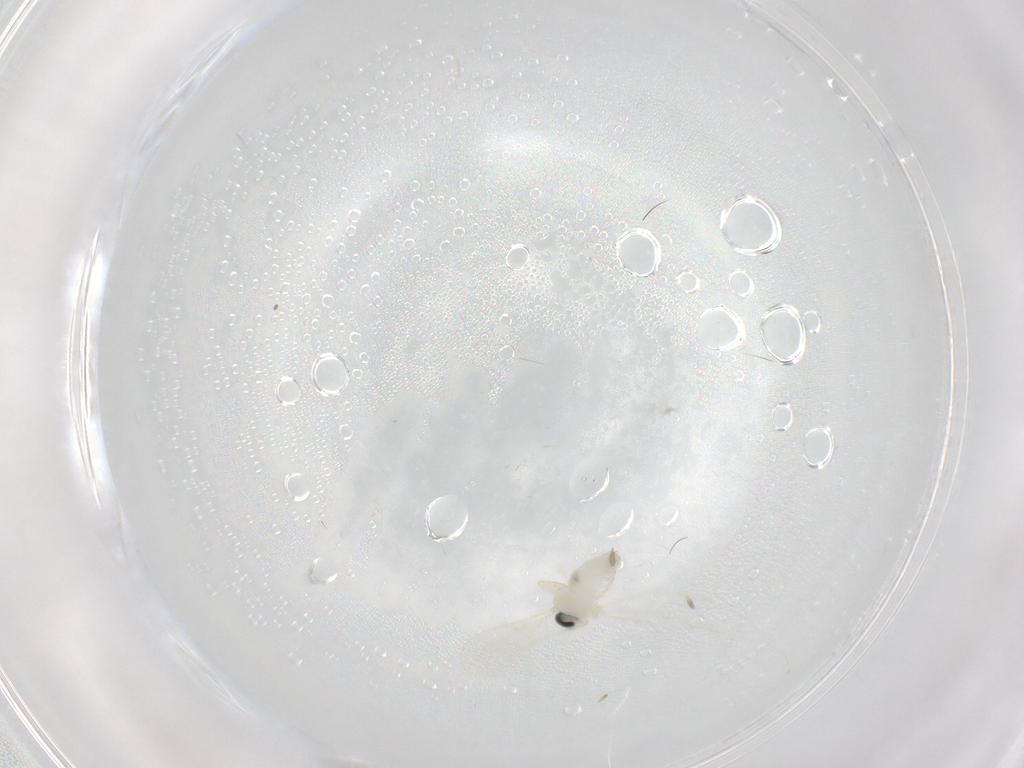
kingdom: Animalia
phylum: Arthropoda
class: Insecta
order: Diptera
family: Cecidomyiidae
